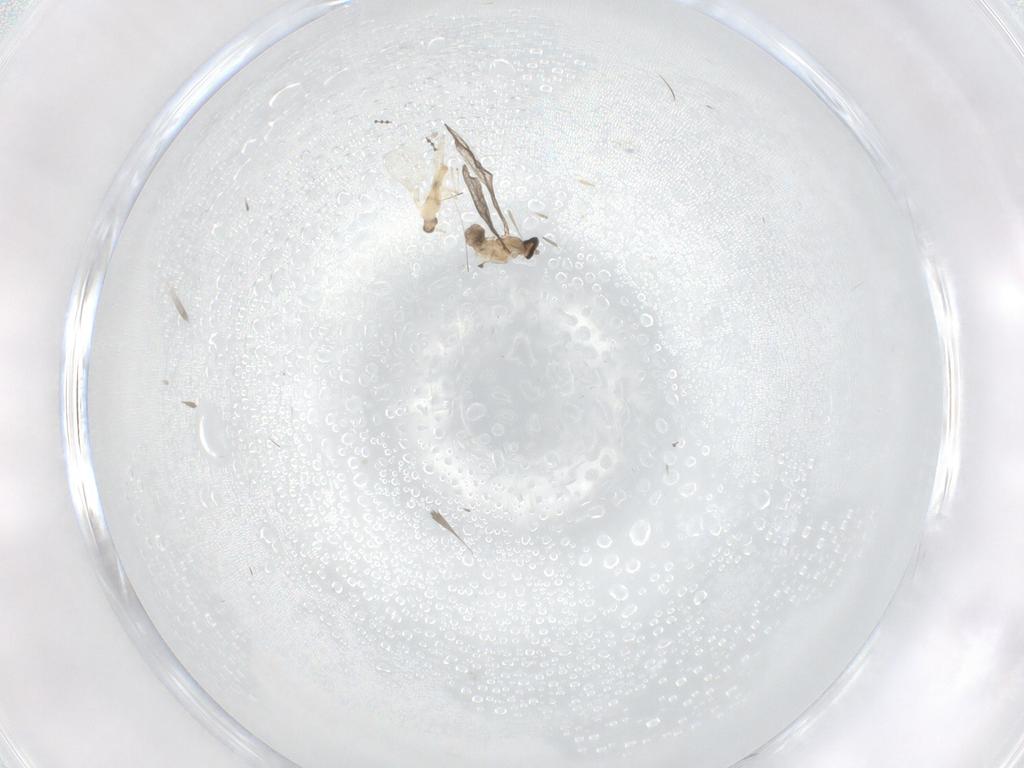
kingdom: Animalia
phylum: Arthropoda
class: Insecta
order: Diptera
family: Cecidomyiidae
